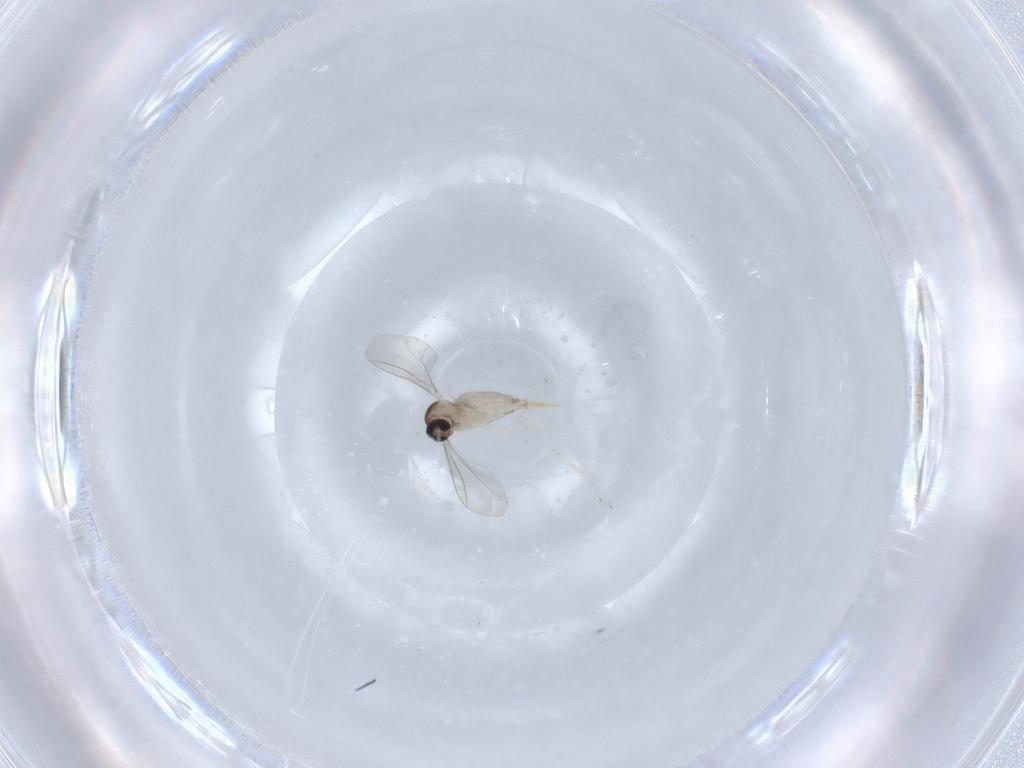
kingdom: Animalia
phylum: Arthropoda
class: Insecta
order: Diptera
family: Cecidomyiidae
